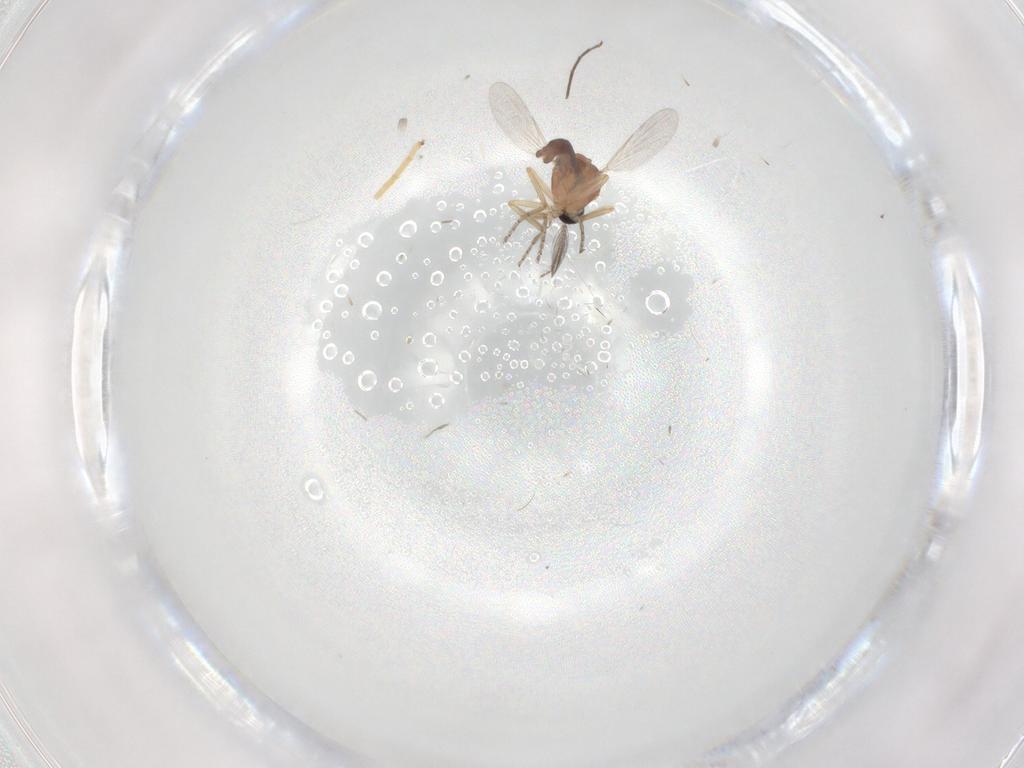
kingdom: Animalia
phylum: Arthropoda
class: Insecta
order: Diptera
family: Ceratopogonidae
